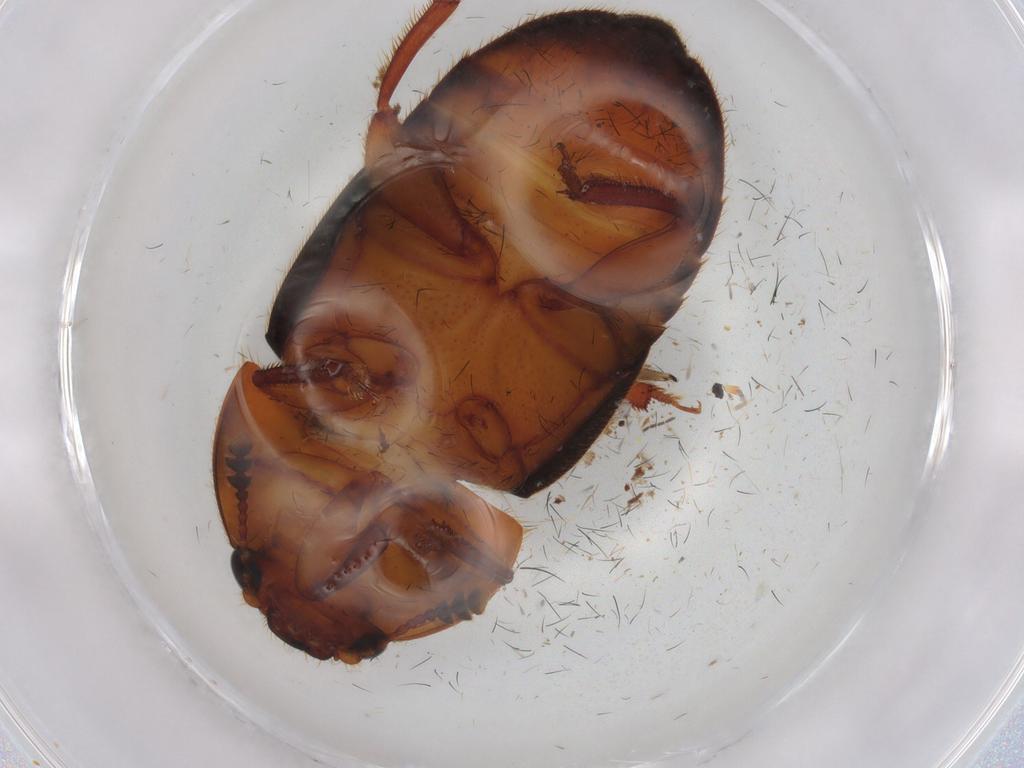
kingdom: Animalia
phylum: Arthropoda
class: Insecta
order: Coleoptera
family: Nitidulidae
